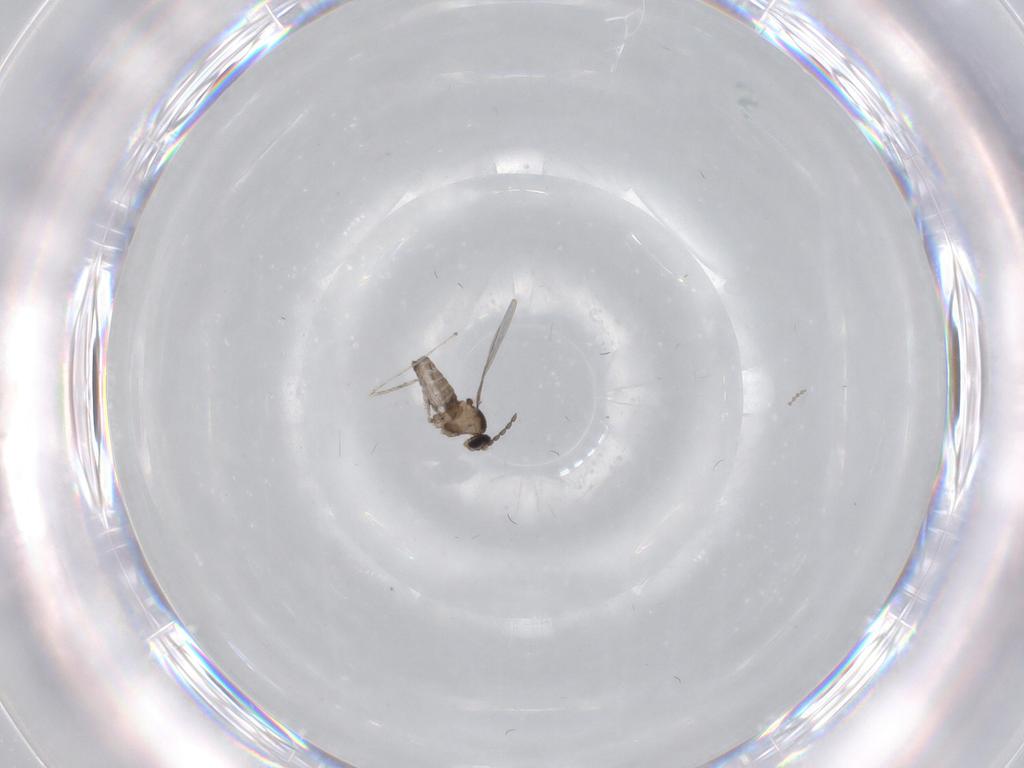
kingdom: Animalia
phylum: Arthropoda
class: Insecta
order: Diptera
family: Cecidomyiidae
